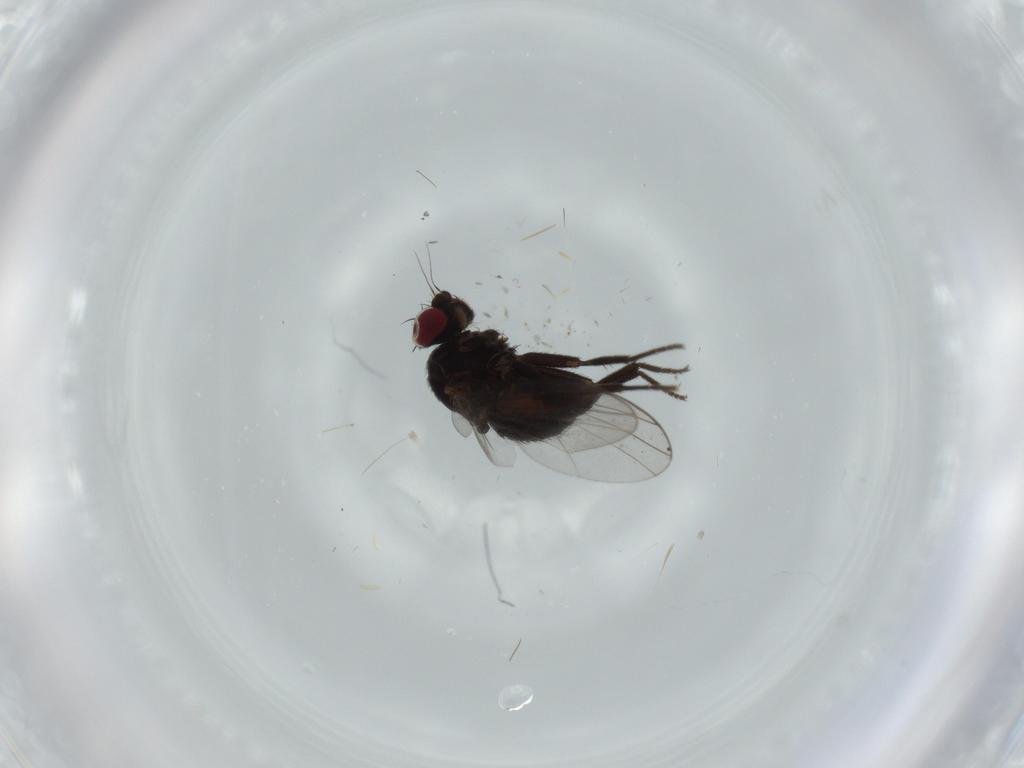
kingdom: Animalia
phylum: Arthropoda
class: Insecta
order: Diptera
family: Agromyzidae
